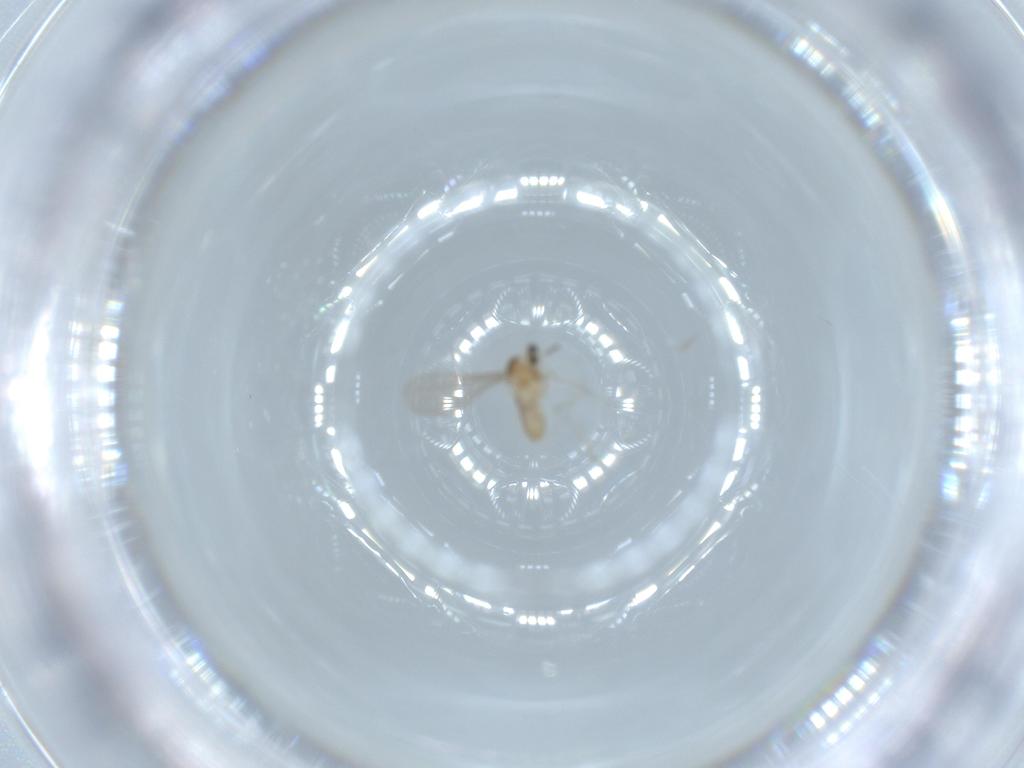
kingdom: Animalia
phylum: Arthropoda
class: Insecta
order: Diptera
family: Cecidomyiidae
